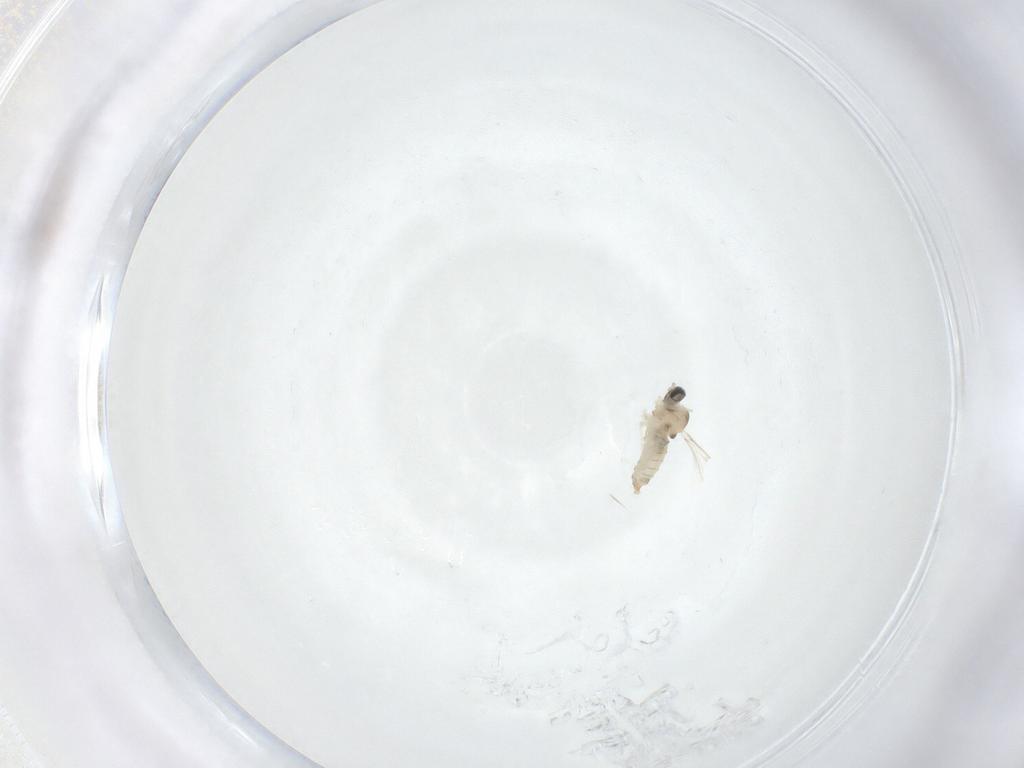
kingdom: Animalia
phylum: Arthropoda
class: Insecta
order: Diptera
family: Cecidomyiidae
